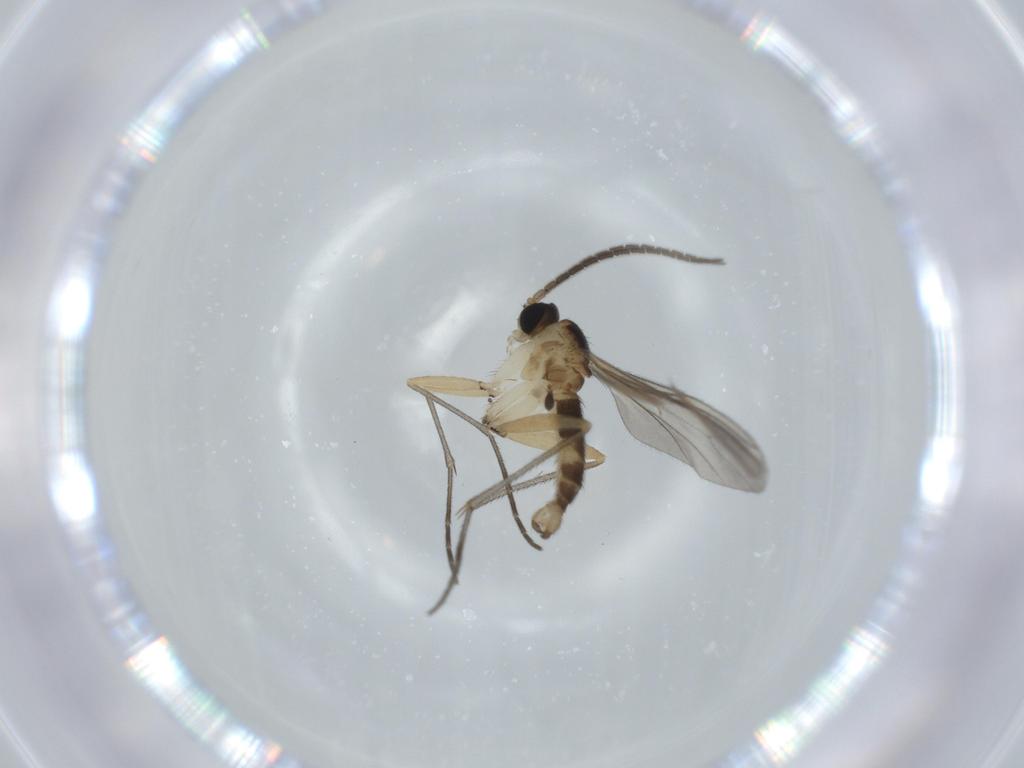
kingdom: Animalia
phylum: Arthropoda
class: Insecta
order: Diptera
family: Sciaridae
